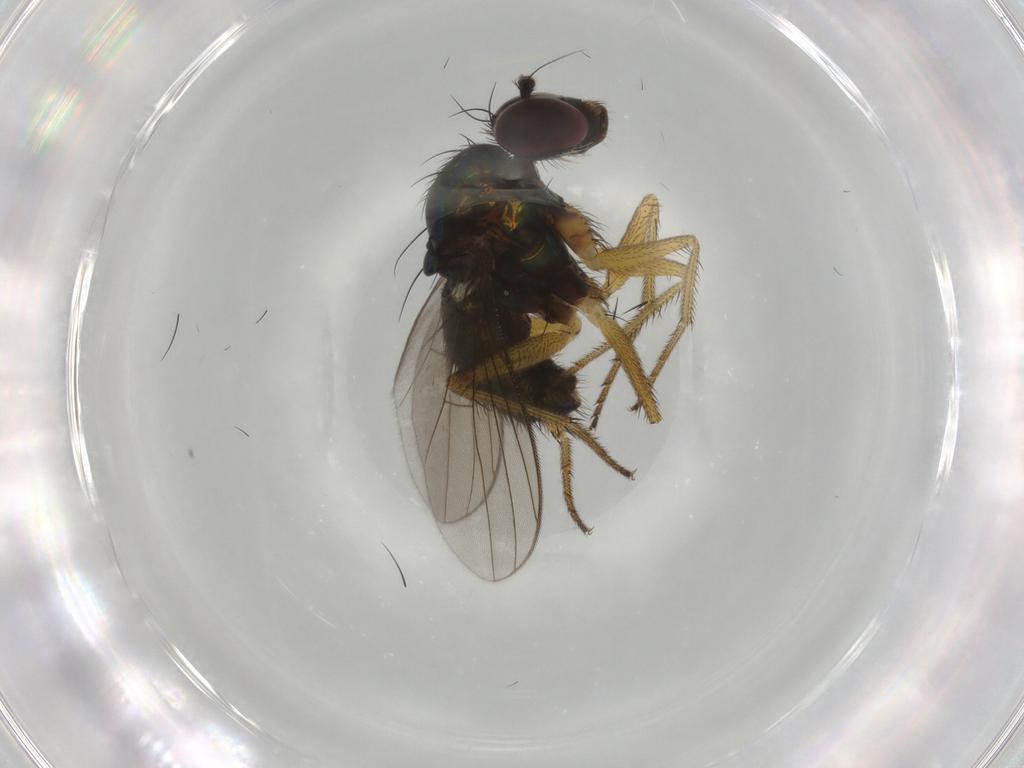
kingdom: Animalia
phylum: Arthropoda
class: Insecta
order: Diptera
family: Dolichopodidae
